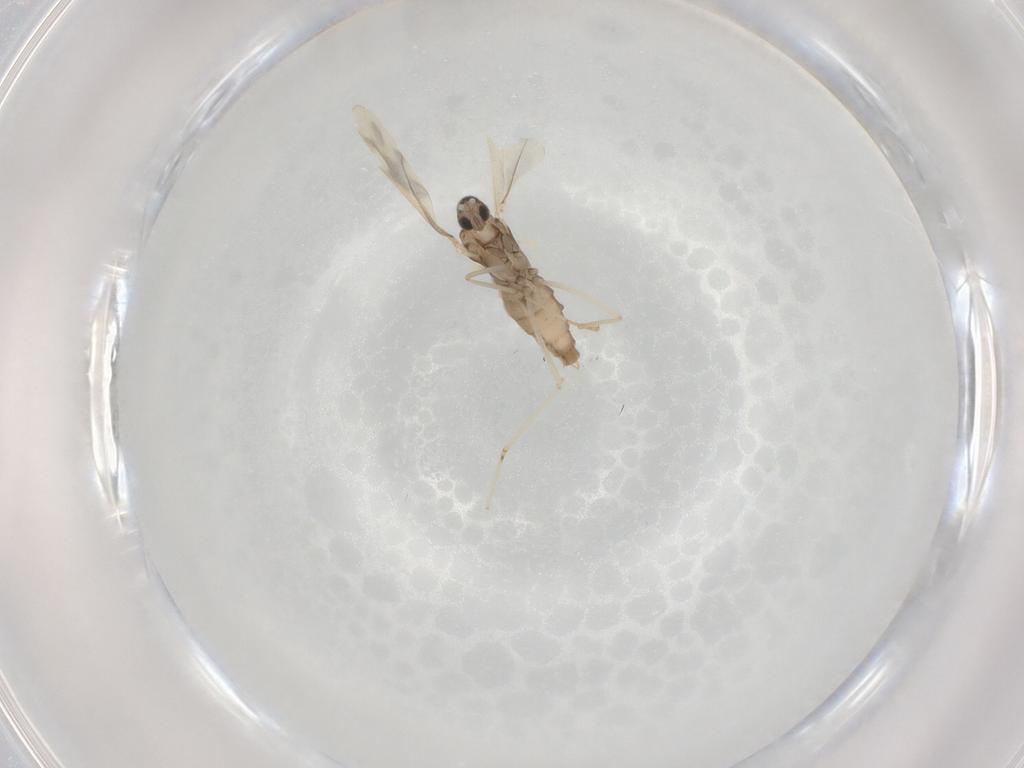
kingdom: Animalia
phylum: Arthropoda
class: Insecta
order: Diptera
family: Cecidomyiidae
